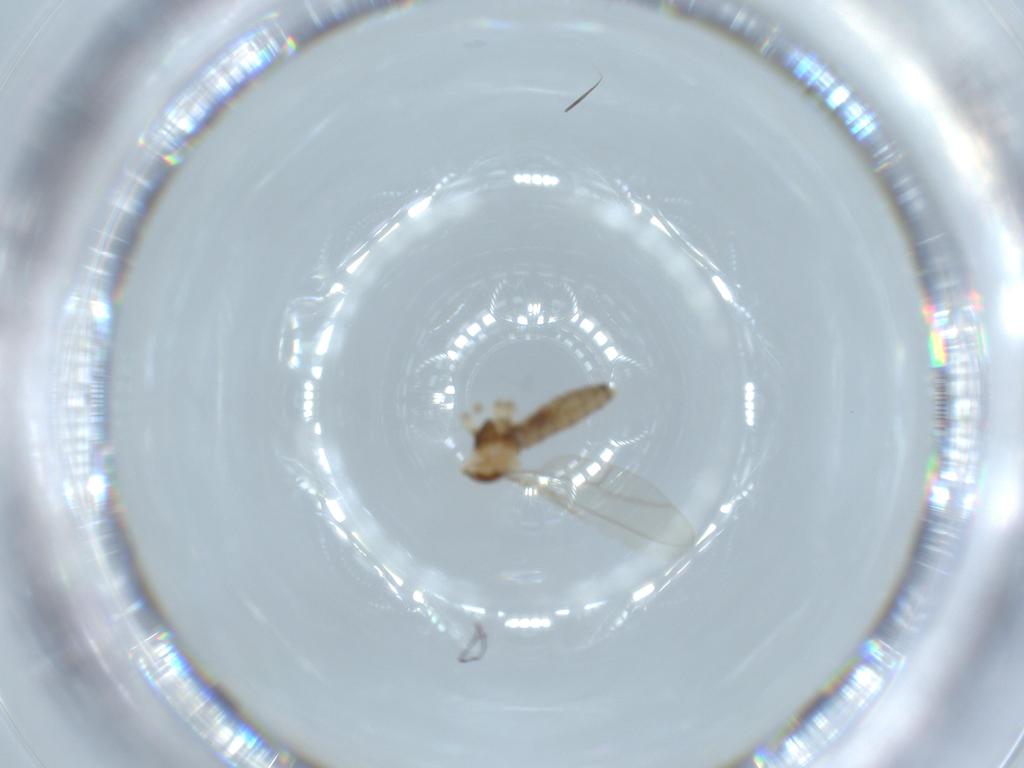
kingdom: Animalia
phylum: Arthropoda
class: Insecta
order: Diptera
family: Cecidomyiidae
